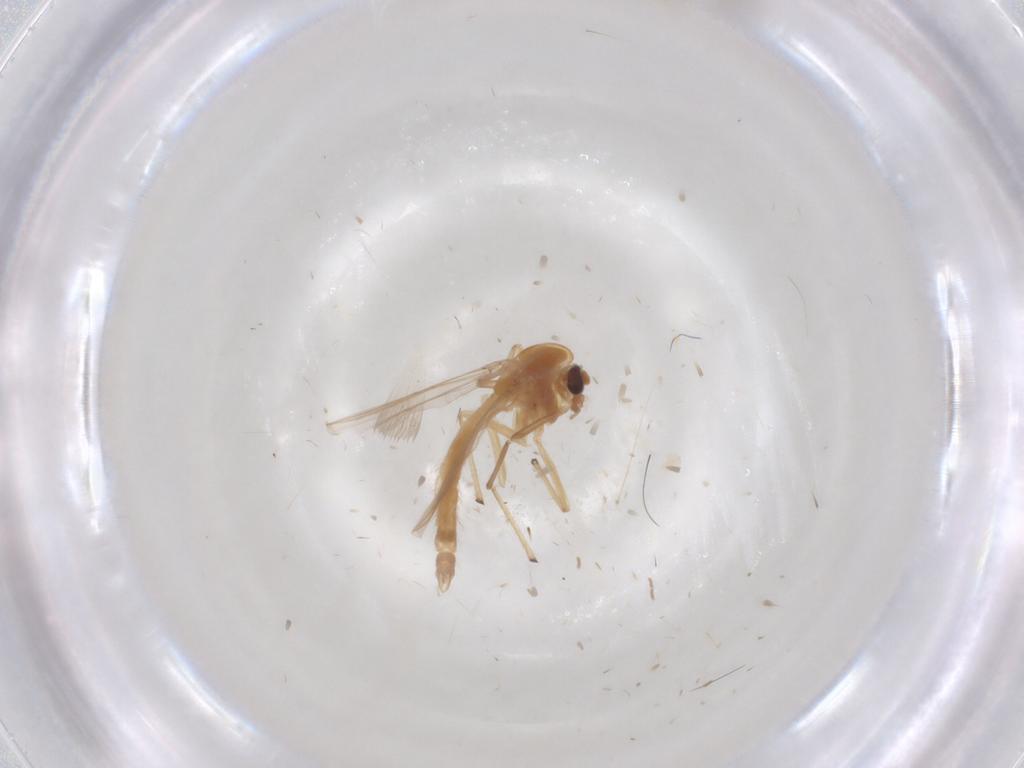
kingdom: Animalia
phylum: Arthropoda
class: Insecta
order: Diptera
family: Chironomidae
